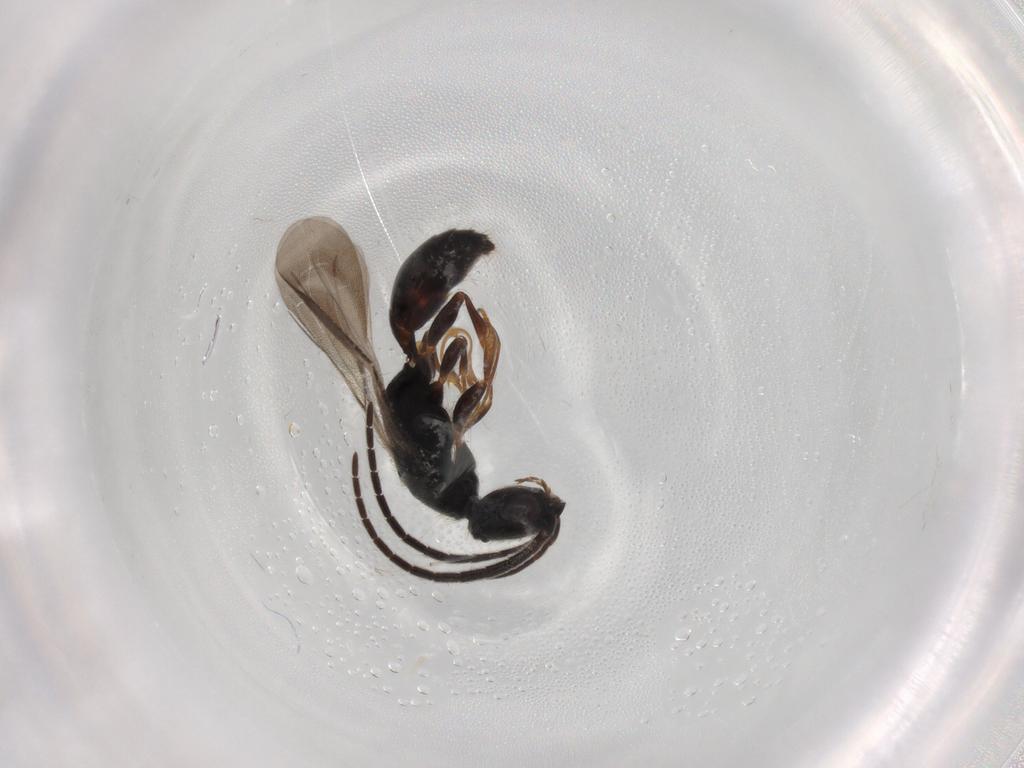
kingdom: Animalia
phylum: Arthropoda
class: Insecta
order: Hymenoptera
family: Bethylidae
